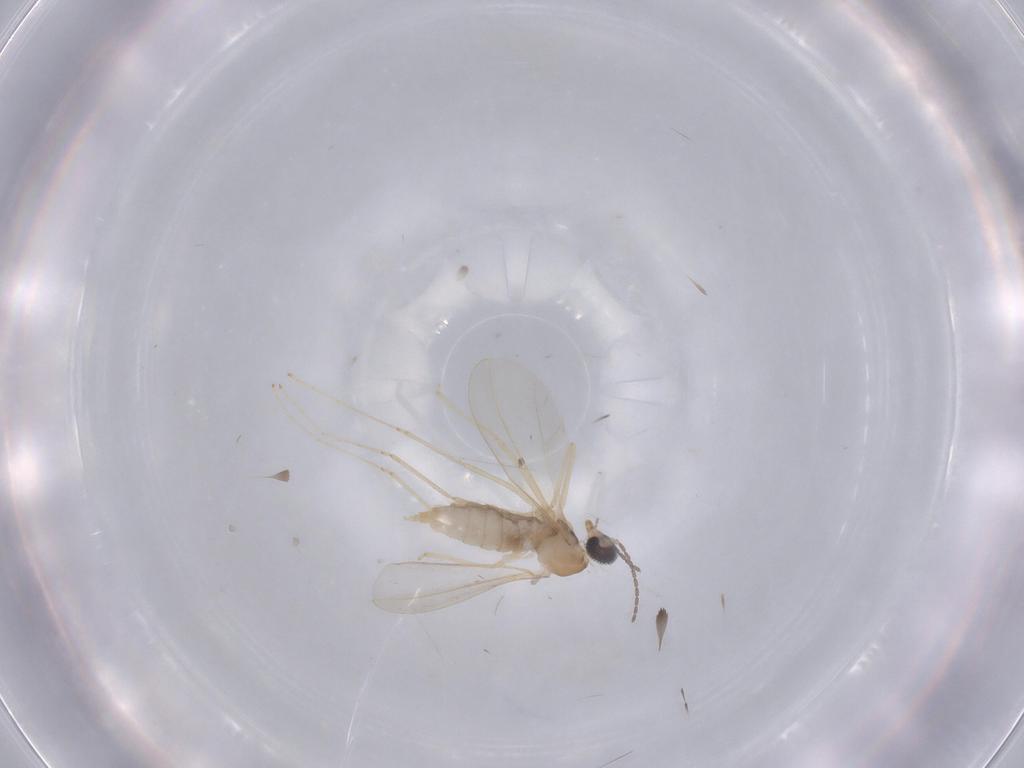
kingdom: Animalia
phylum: Arthropoda
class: Insecta
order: Diptera
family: Cecidomyiidae
